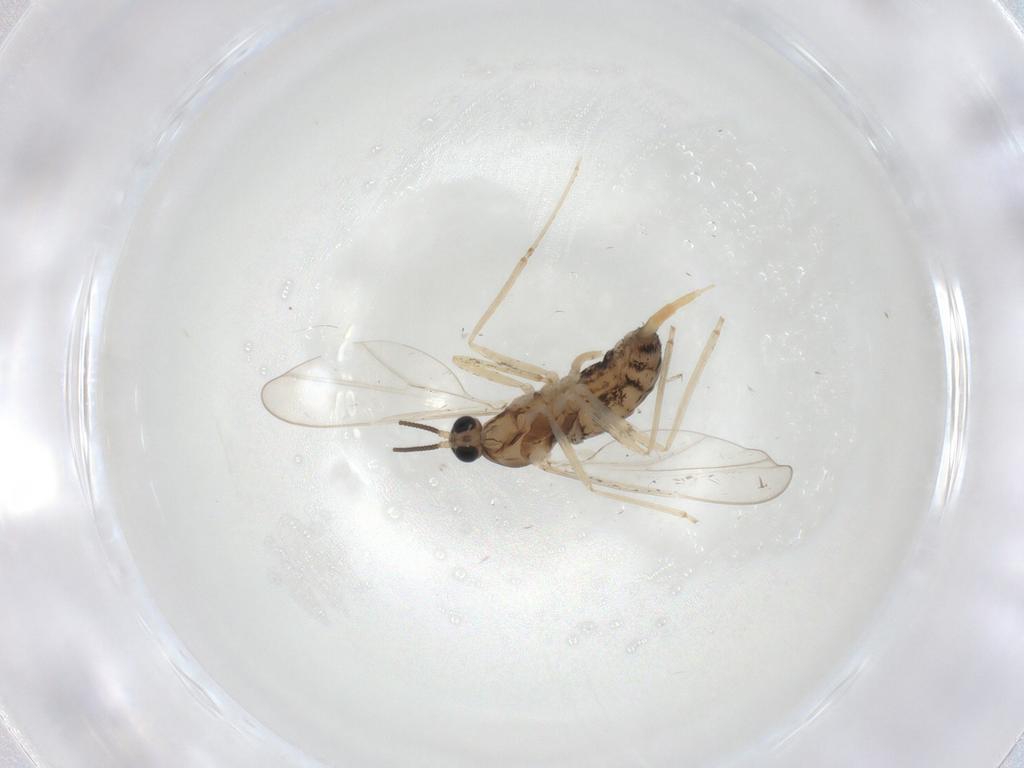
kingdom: Animalia
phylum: Arthropoda
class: Insecta
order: Diptera
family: Cecidomyiidae
